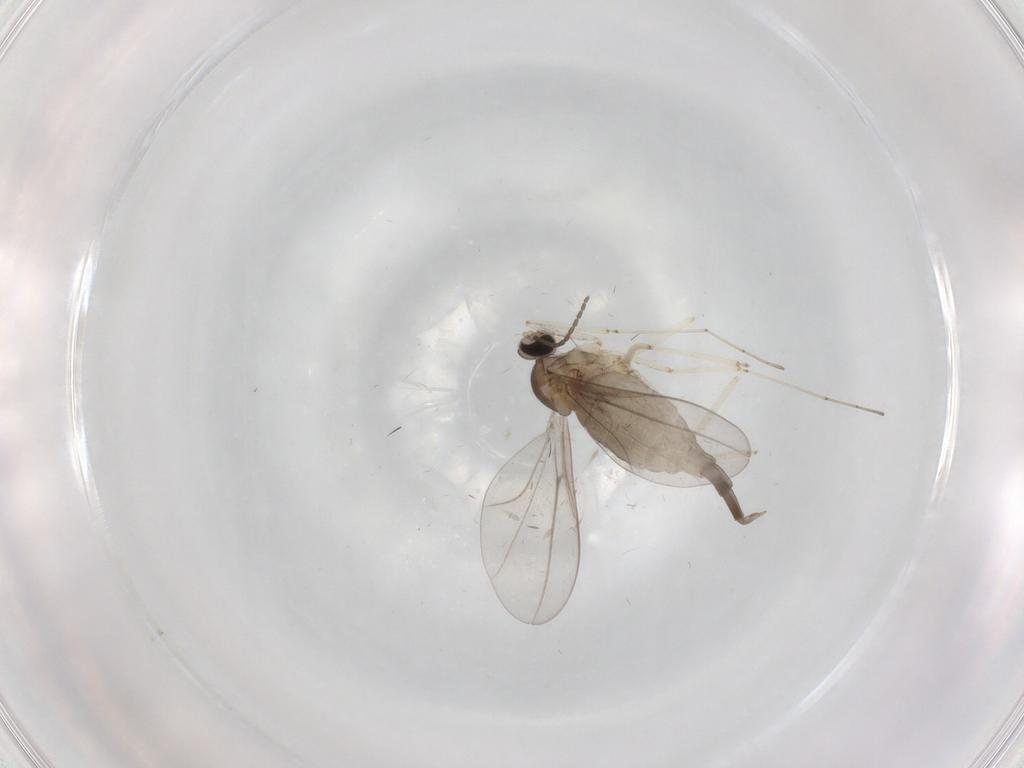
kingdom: Animalia
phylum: Arthropoda
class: Insecta
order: Diptera
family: Cecidomyiidae
